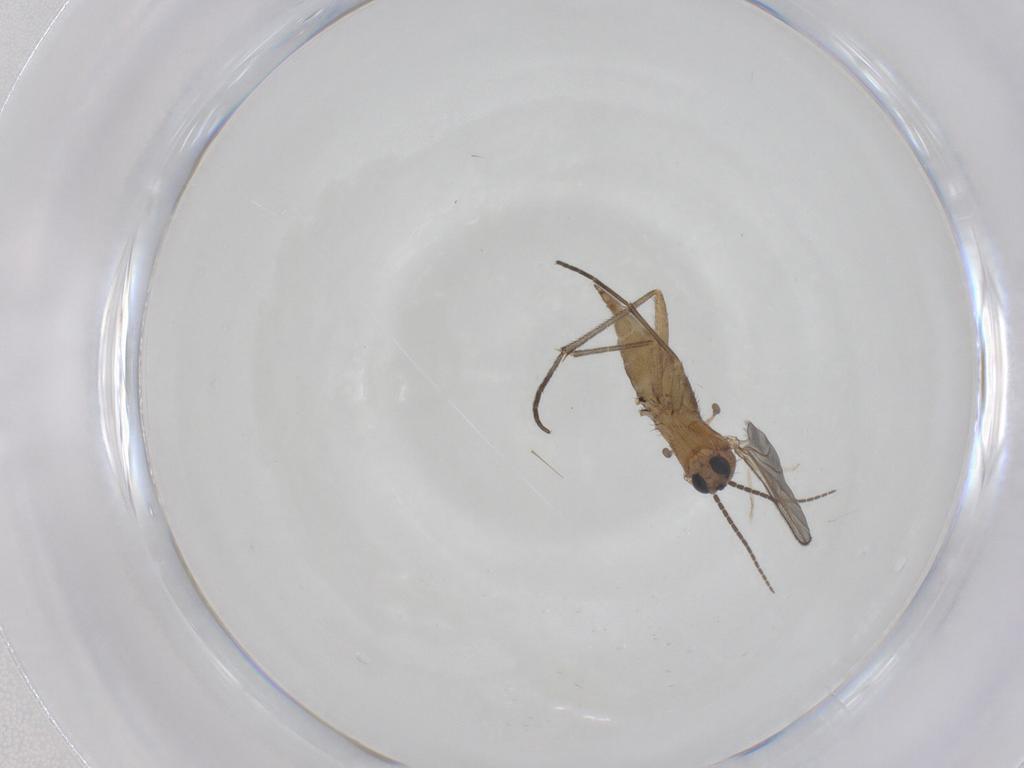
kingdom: Animalia
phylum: Arthropoda
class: Insecta
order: Diptera
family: Sciaridae
